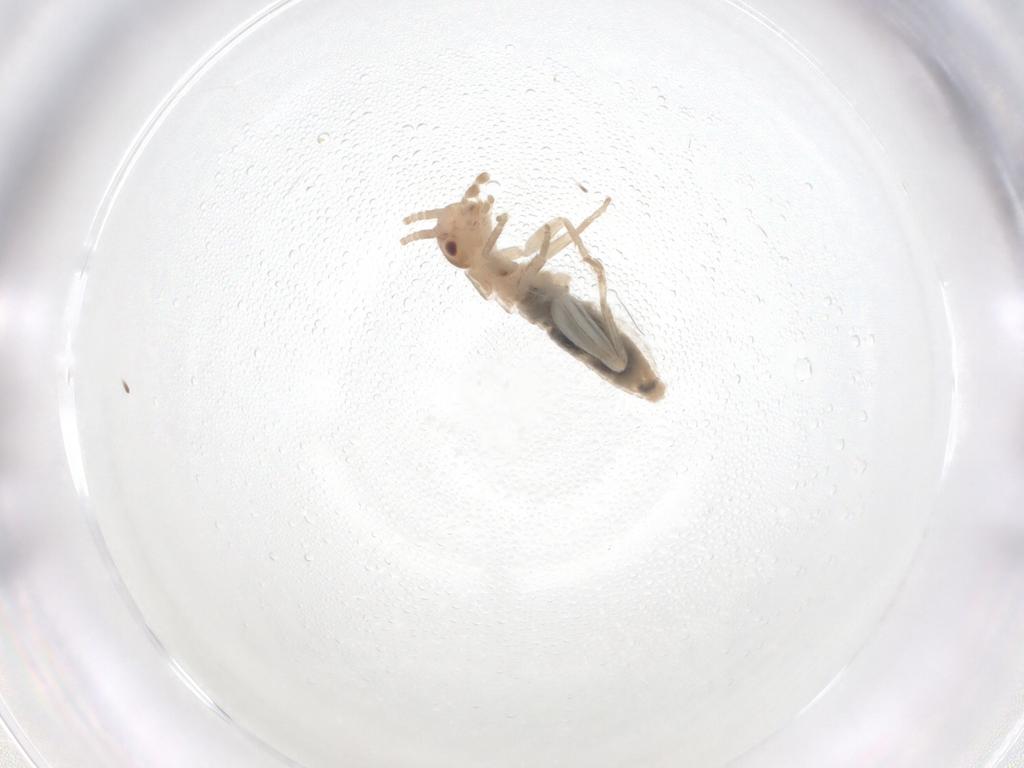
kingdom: Animalia
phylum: Arthropoda
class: Insecta
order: Orthoptera
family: Gryllidae
